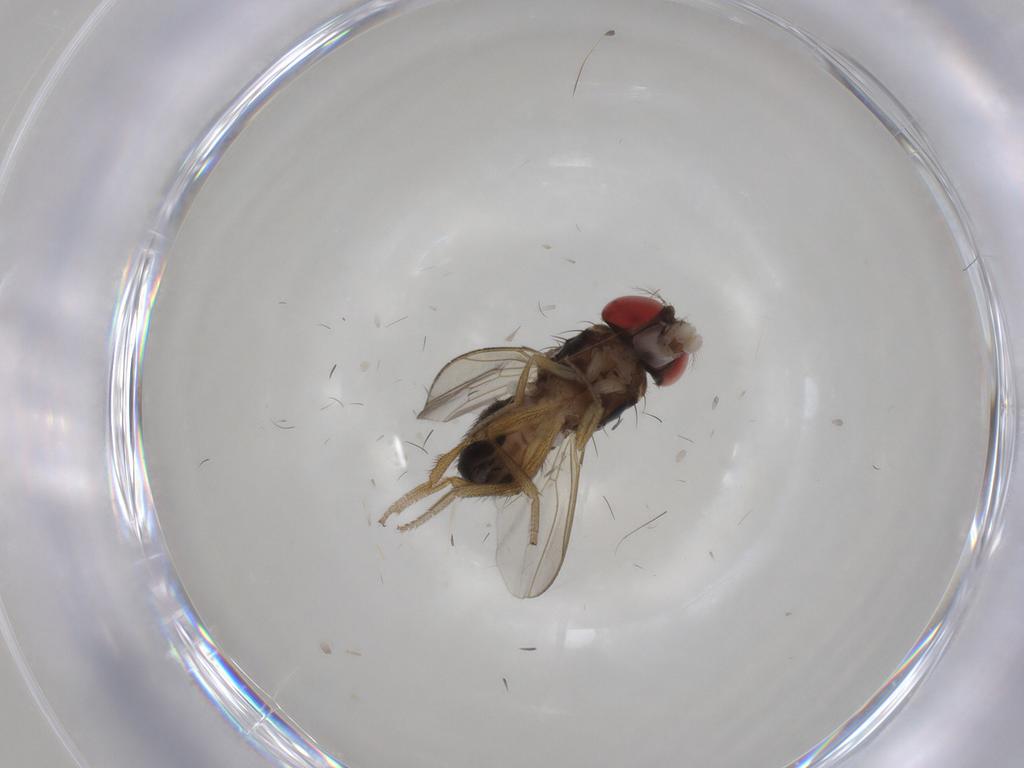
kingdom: Animalia
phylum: Arthropoda
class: Insecta
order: Diptera
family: Drosophilidae
